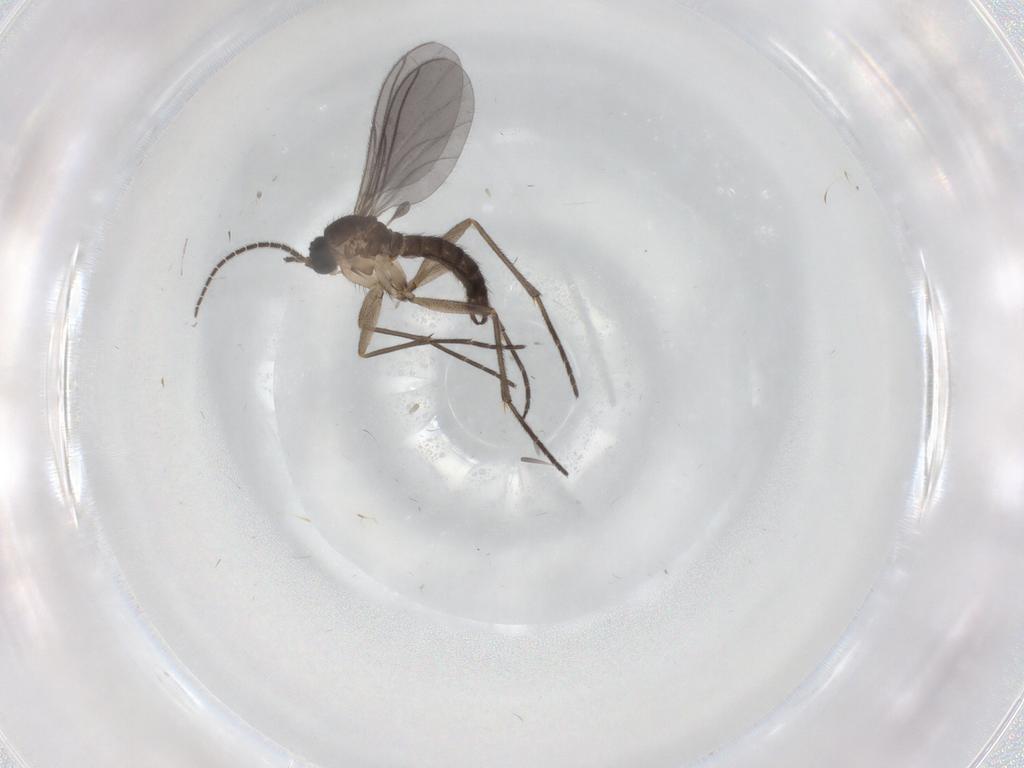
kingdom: Animalia
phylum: Arthropoda
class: Insecta
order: Diptera
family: Sciaridae
